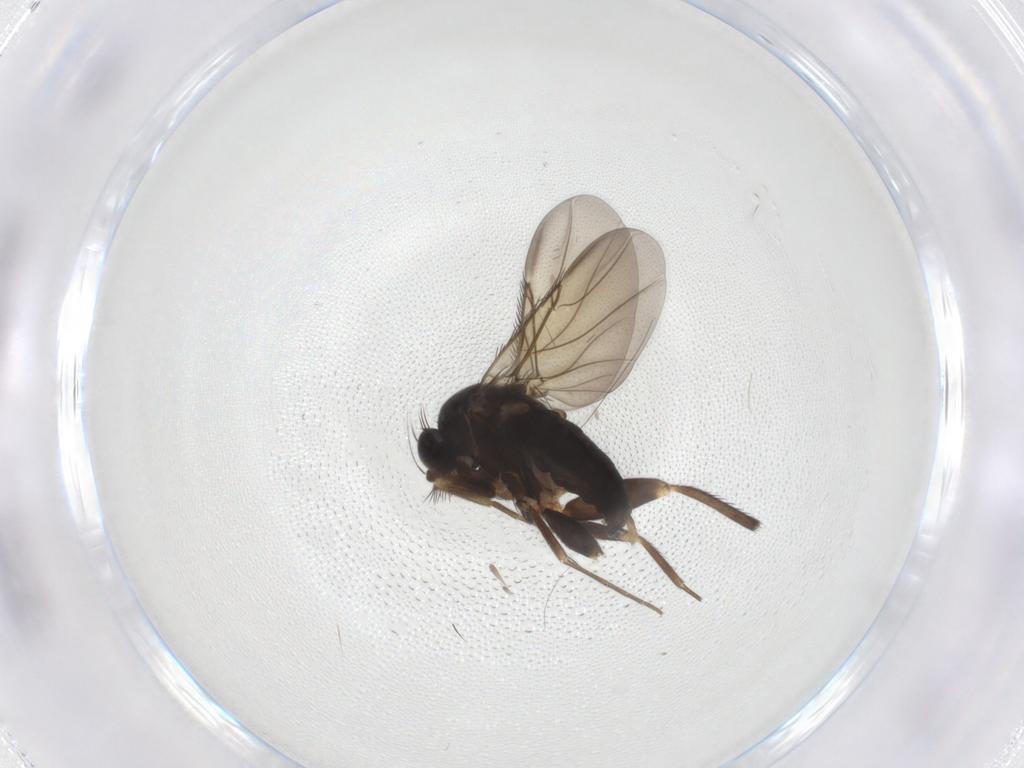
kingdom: Animalia
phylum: Arthropoda
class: Insecta
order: Diptera
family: Phoridae
